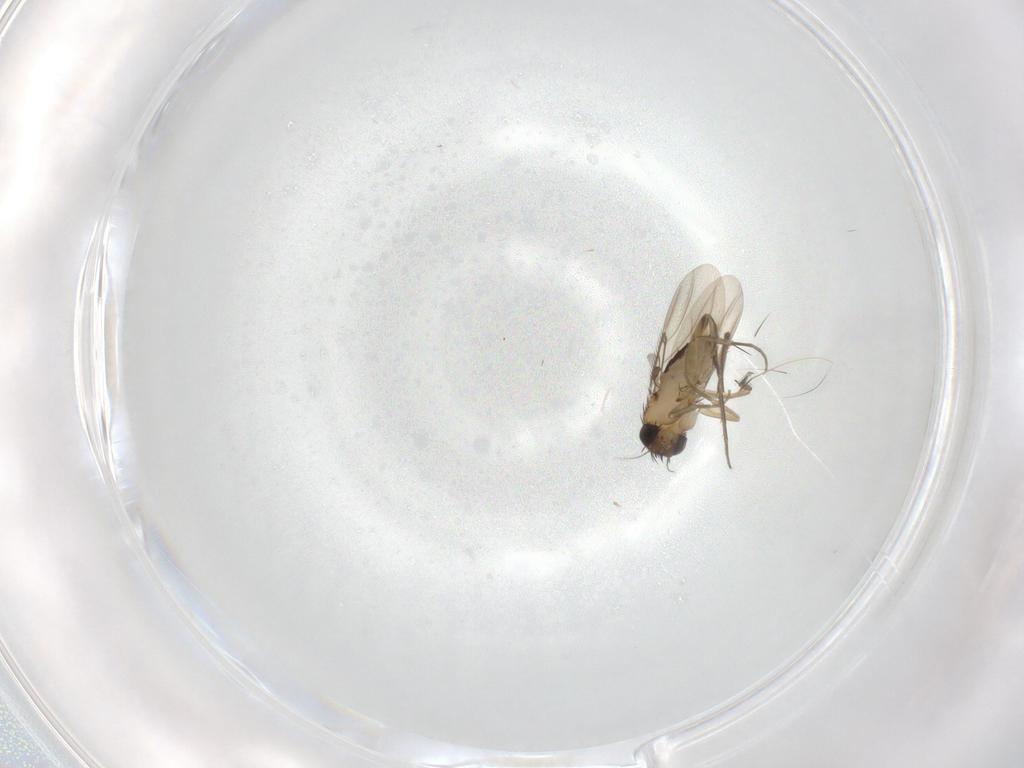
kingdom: Animalia
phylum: Arthropoda
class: Insecta
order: Diptera
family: Phoridae
